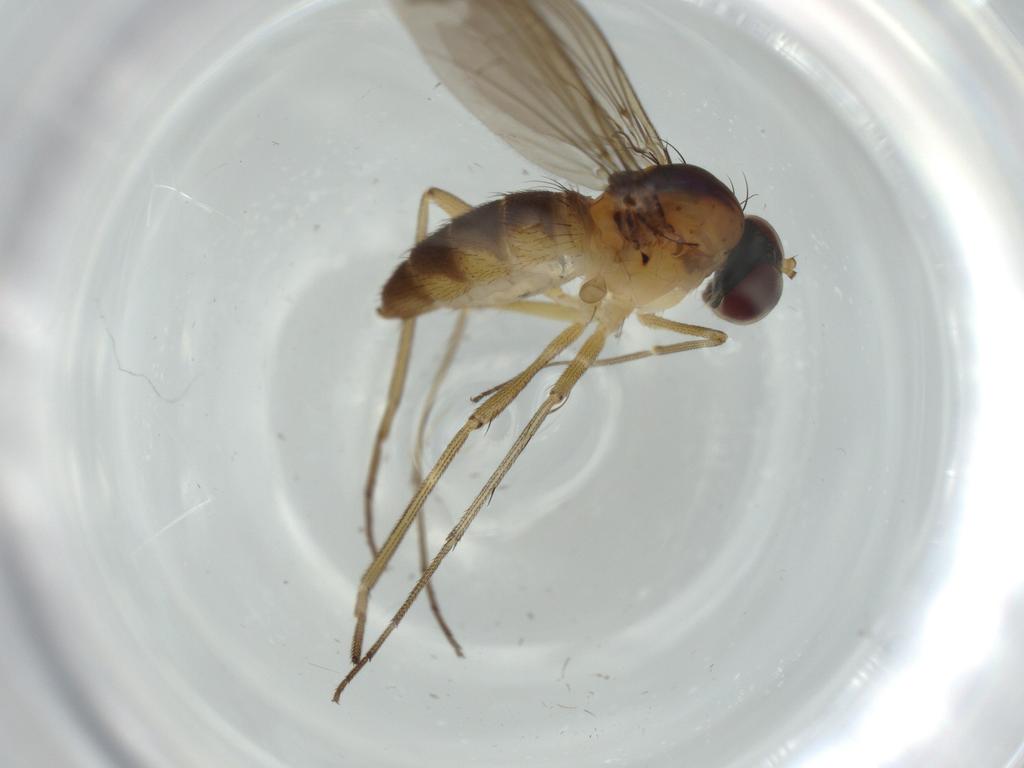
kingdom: Animalia
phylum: Arthropoda
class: Insecta
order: Diptera
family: Dolichopodidae
